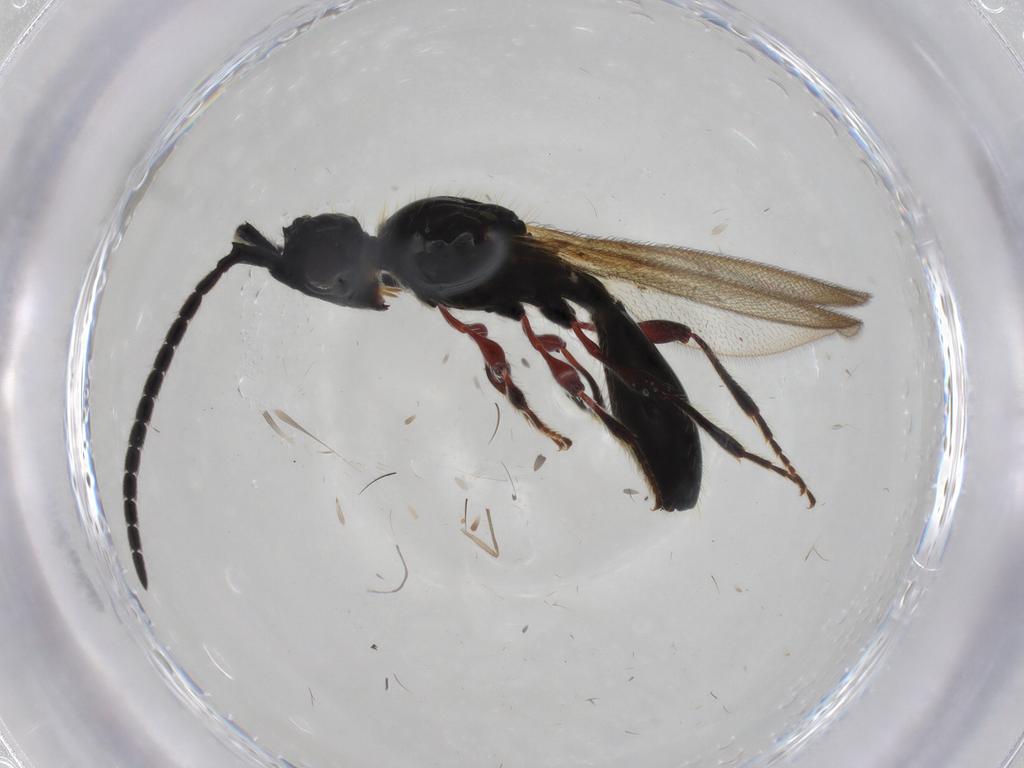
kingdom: Animalia
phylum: Arthropoda
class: Insecta
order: Hymenoptera
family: Diapriidae
